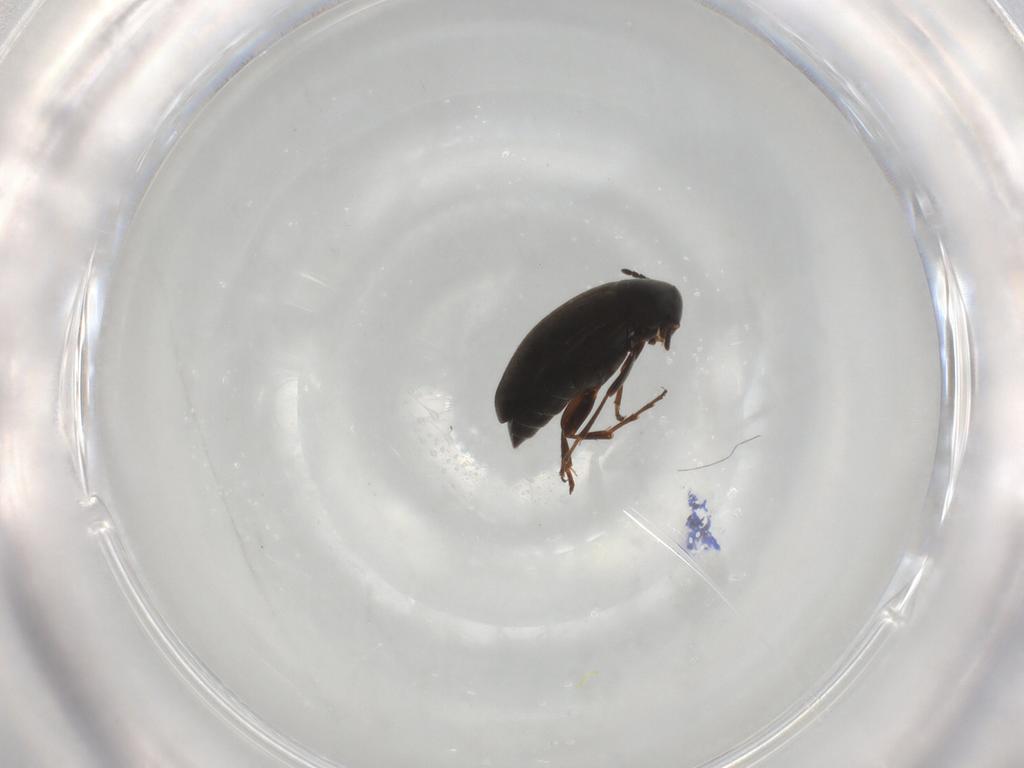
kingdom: Animalia
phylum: Arthropoda
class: Insecta
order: Coleoptera
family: Scraptiidae
